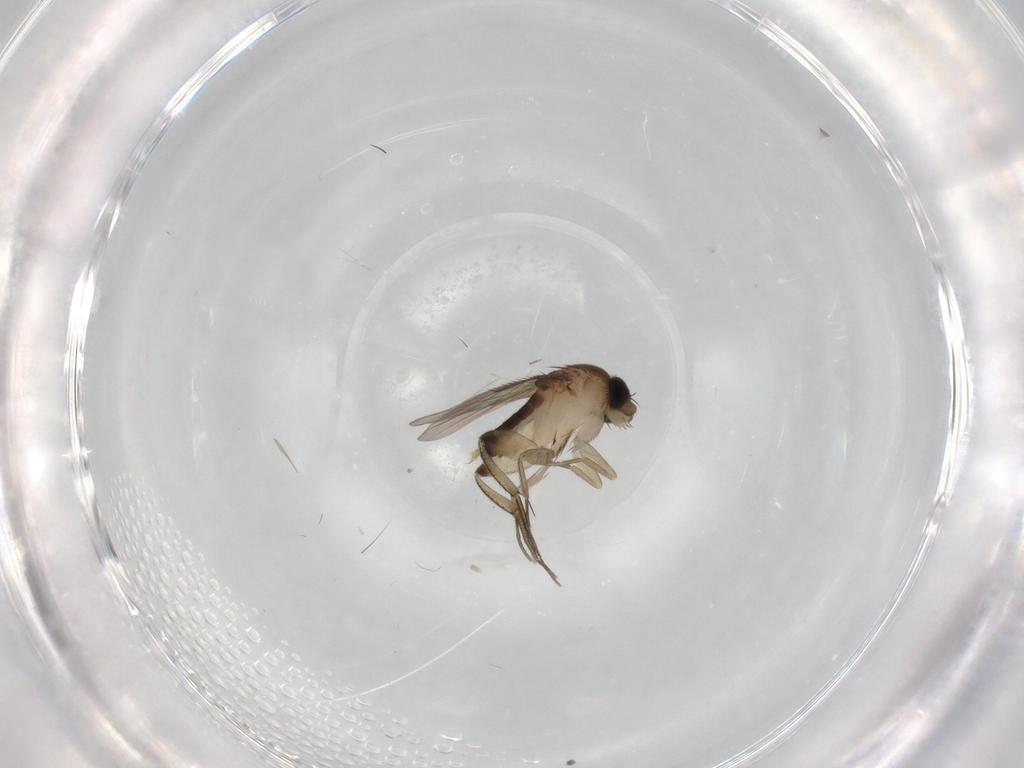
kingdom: Animalia
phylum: Arthropoda
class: Insecta
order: Diptera
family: Phoridae
